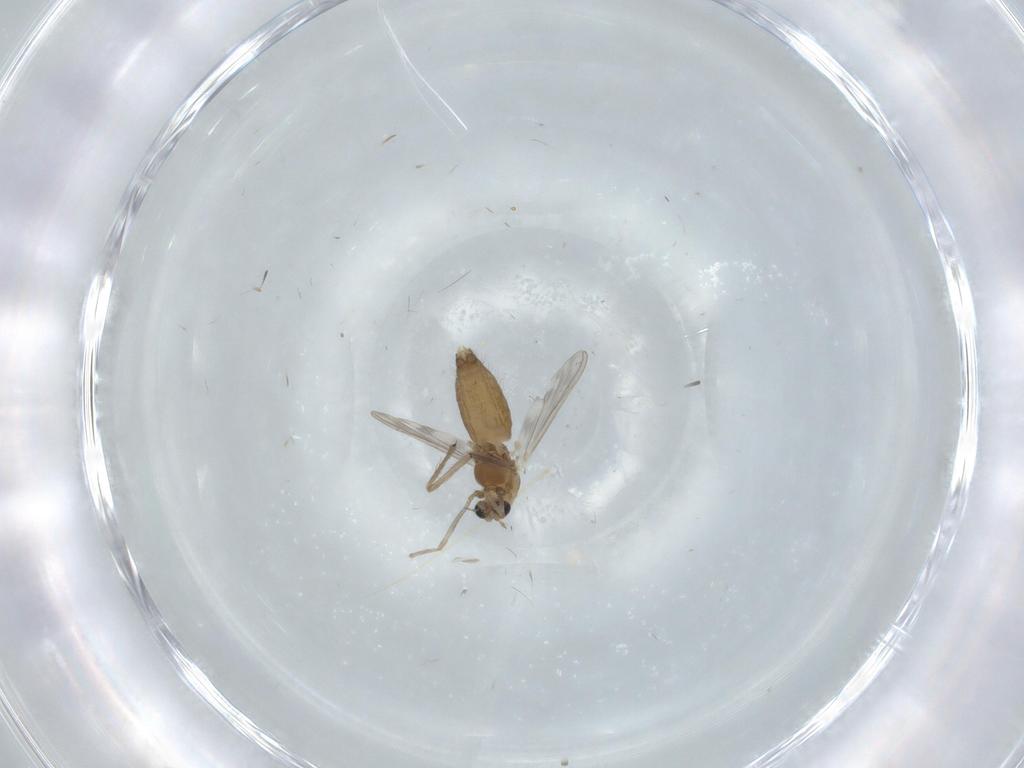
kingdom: Animalia
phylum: Arthropoda
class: Insecta
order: Diptera
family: Chironomidae
